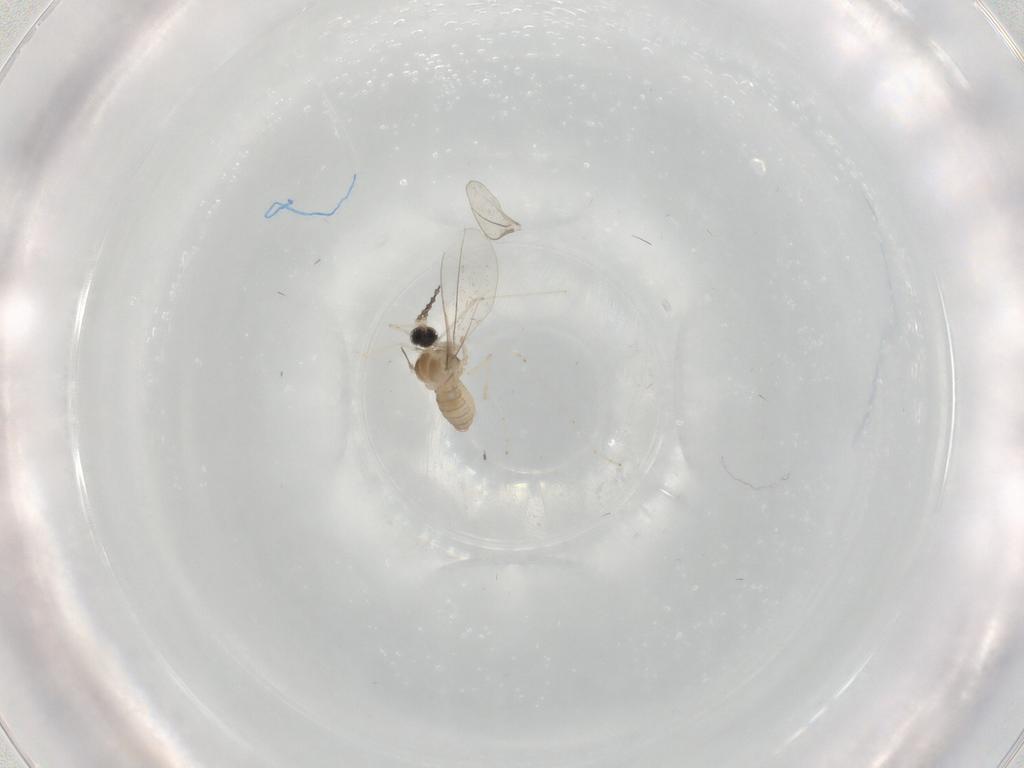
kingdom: Animalia
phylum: Arthropoda
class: Insecta
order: Diptera
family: Cecidomyiidae
